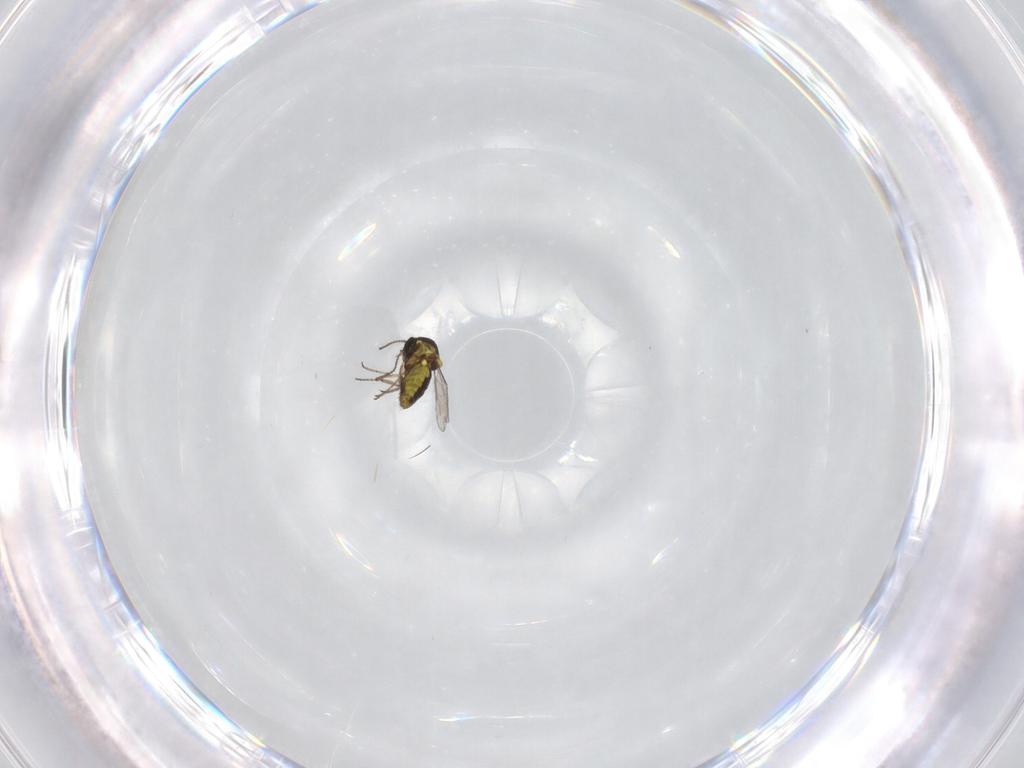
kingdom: Animalia
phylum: Arthropoda
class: Insecta
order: Diptera
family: Ceratopogonidae
